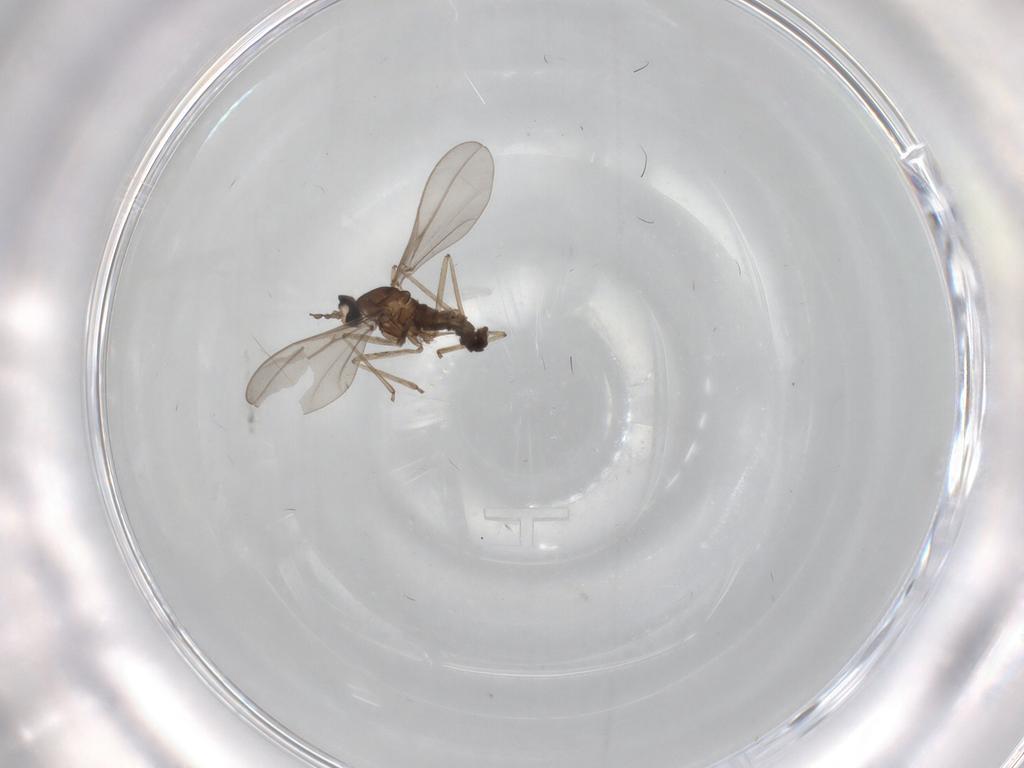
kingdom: Animalia
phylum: Arthropoda
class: Insecta
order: Diptera
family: Cecidomyiidae
